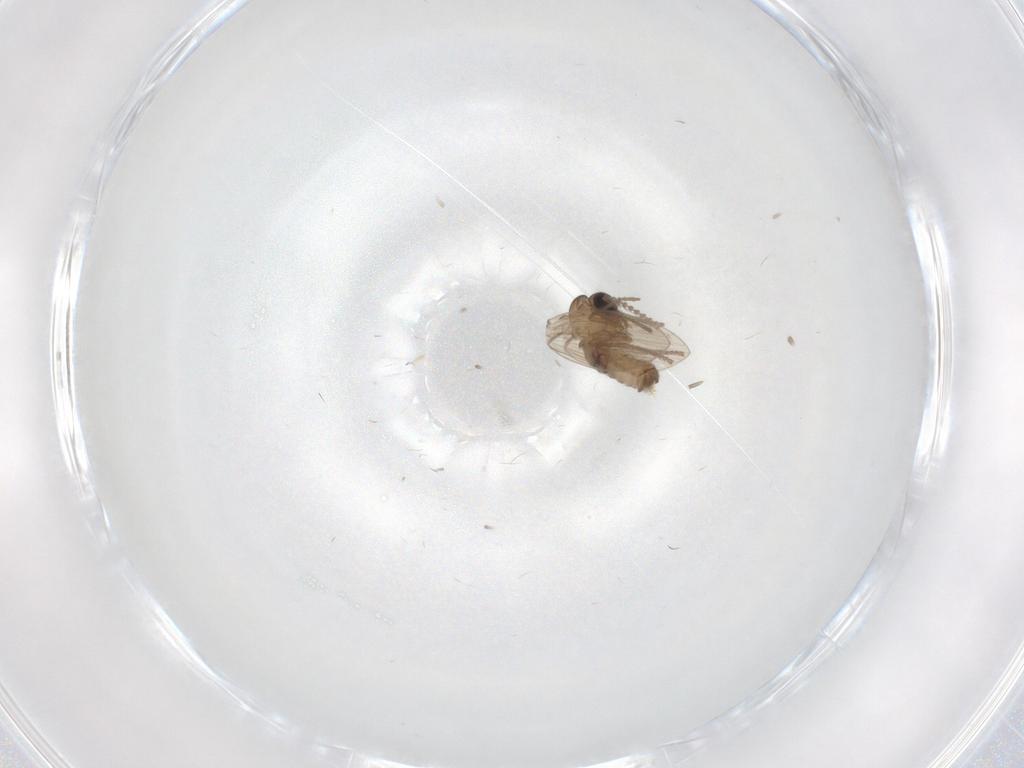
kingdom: Animalia
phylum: Arthropoda
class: Insecta
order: Diptera
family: Psychodidae
